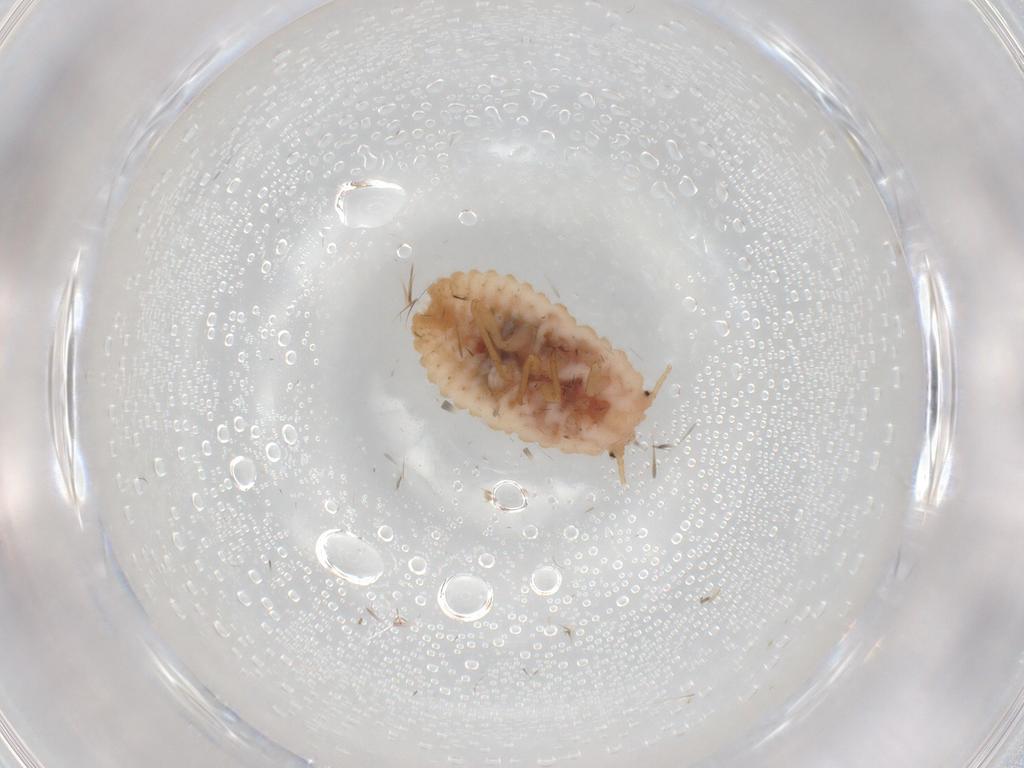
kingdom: Animalia
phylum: Arthropoda
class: Insecta
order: Hemiptera
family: Coccoidea_incertae_sedis
